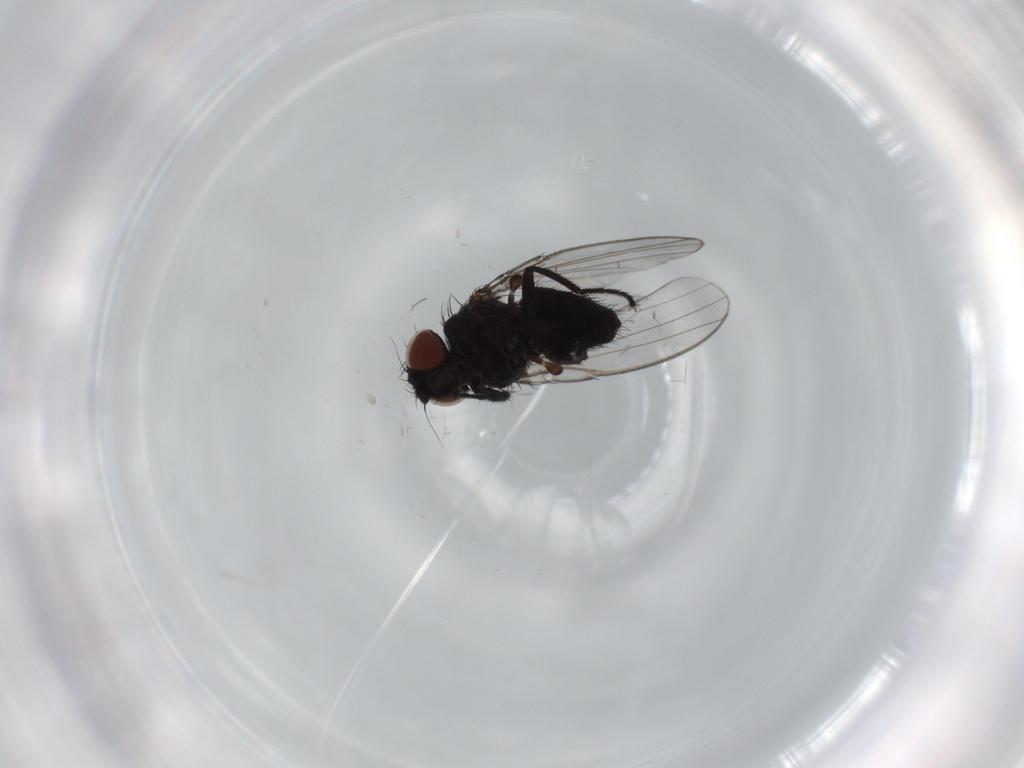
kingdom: Animalia
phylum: Arthropoda
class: Insecta
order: Diptera
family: Milichiidae
